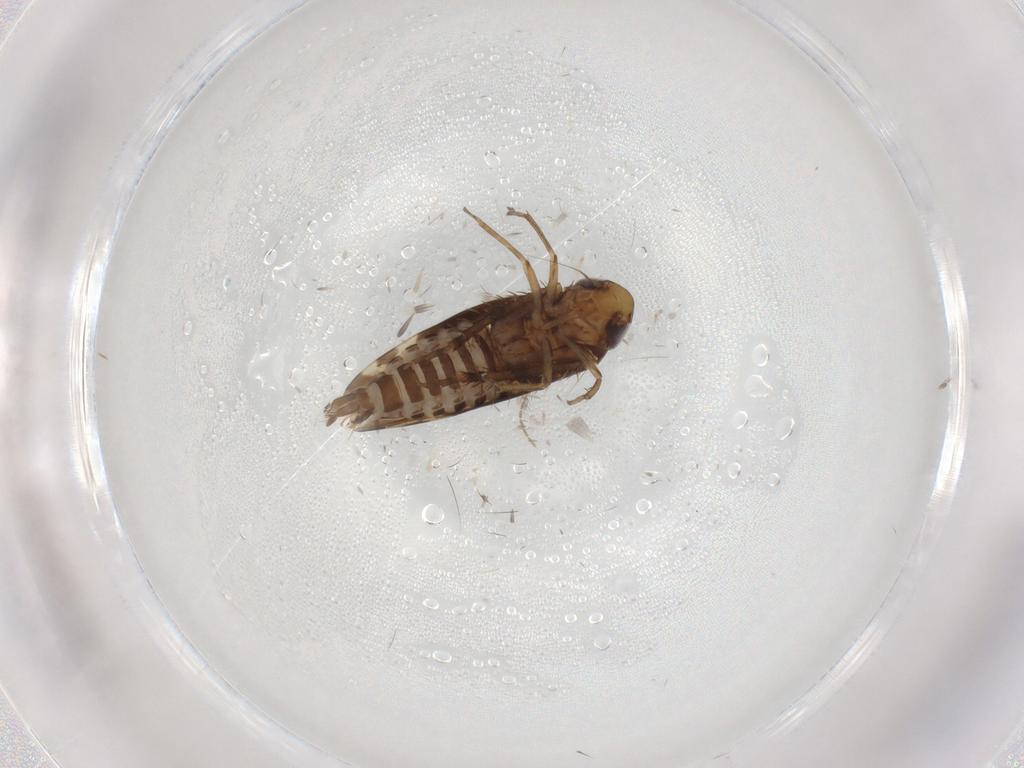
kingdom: Animalia
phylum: Arthropoda
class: Insecta
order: Hemiptera
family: Cicadellidae
